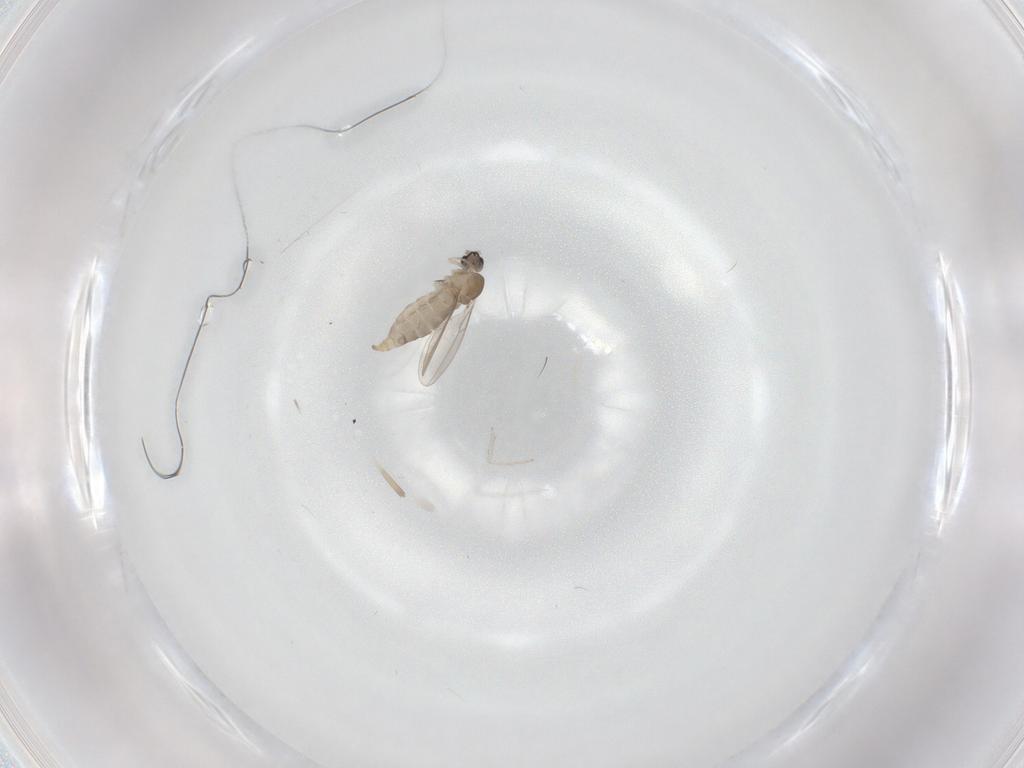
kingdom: Animalia
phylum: Arthropoda
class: Insecta
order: Diptera
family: Cecidomyiidae
